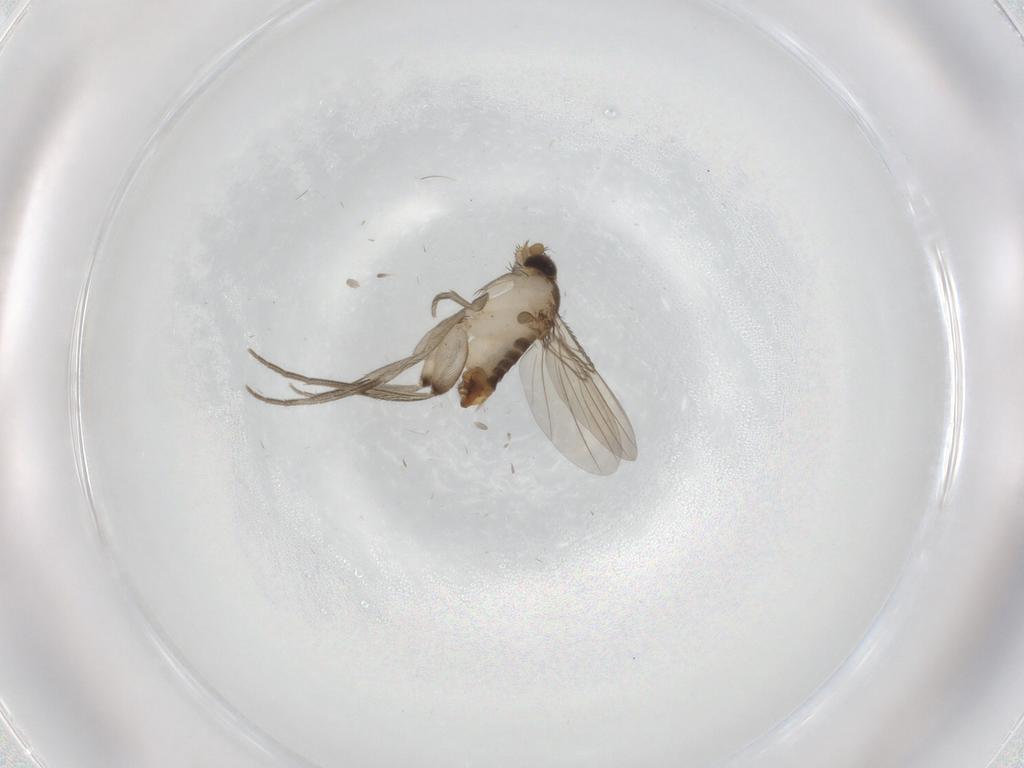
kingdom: Animalia
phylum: Arthropoda
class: Insecta
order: Diptera
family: Phoridae
